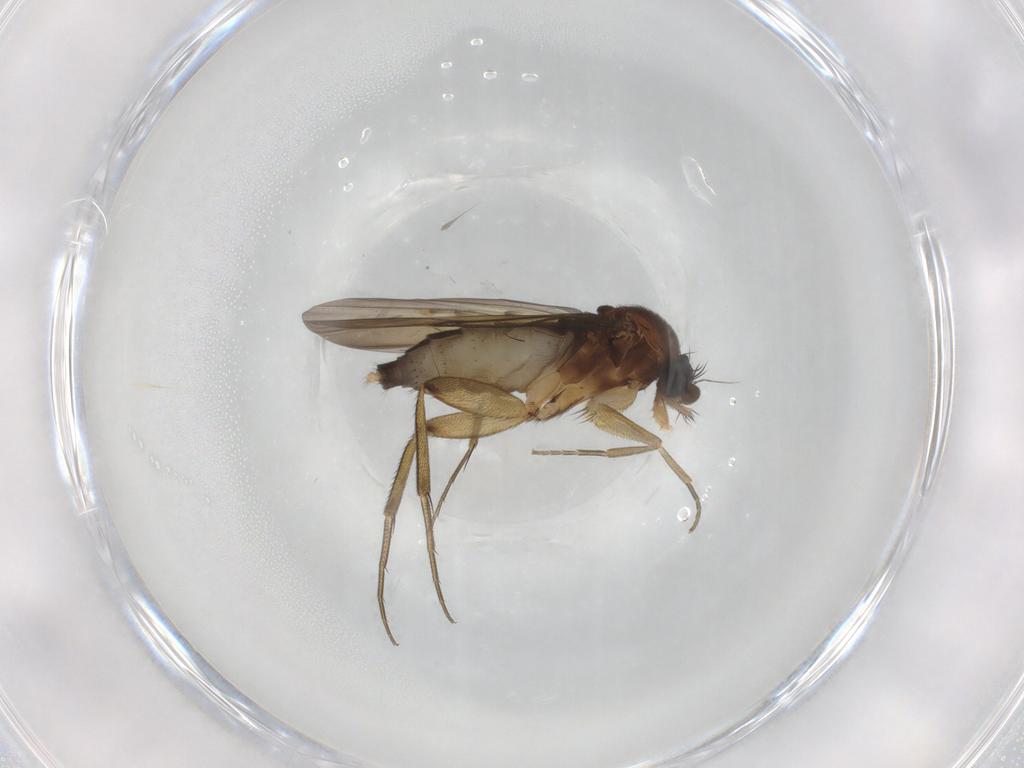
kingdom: Animalia
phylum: Arthropoda
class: Insecta
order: Diptera
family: Phoridae
